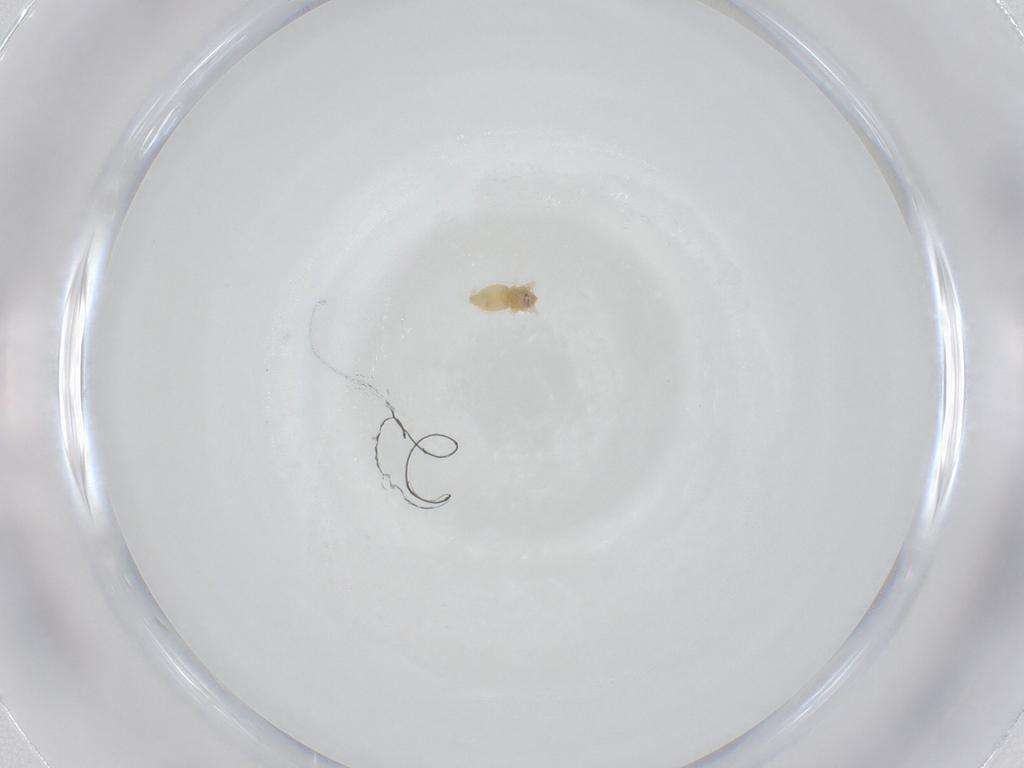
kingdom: Animalia
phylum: Arthropoda
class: Insecta
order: Hemiptera
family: Aleyrodidae
